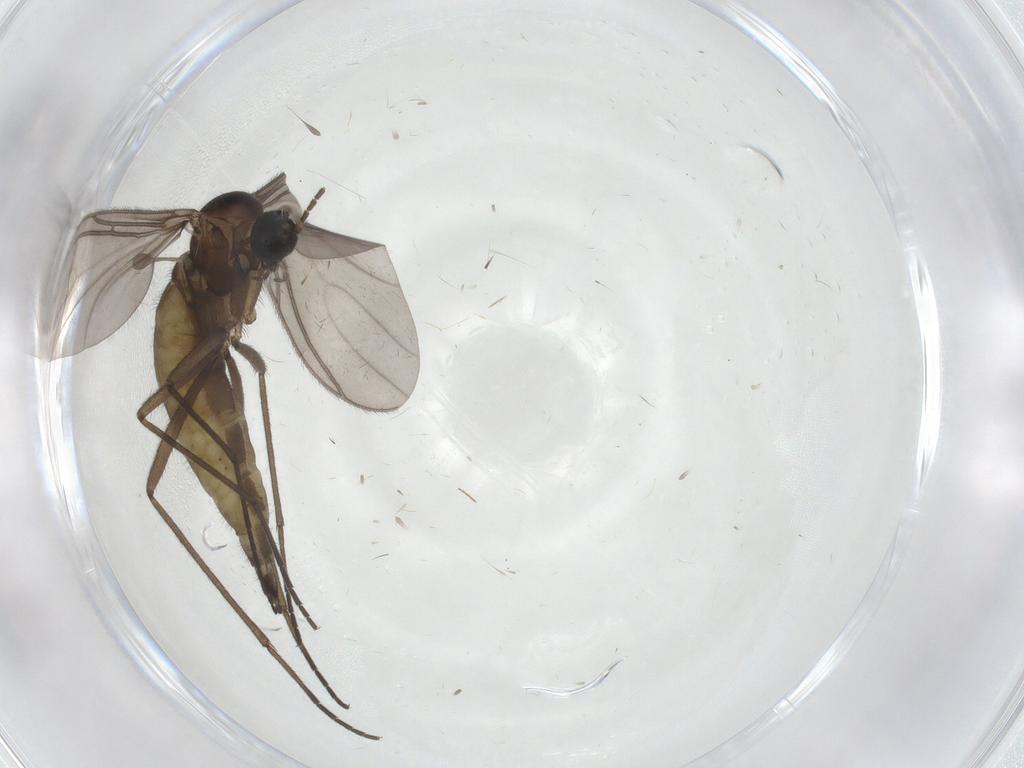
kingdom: Animalia
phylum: Arthropoda
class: Insecta
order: Diptera
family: Sciaridae
